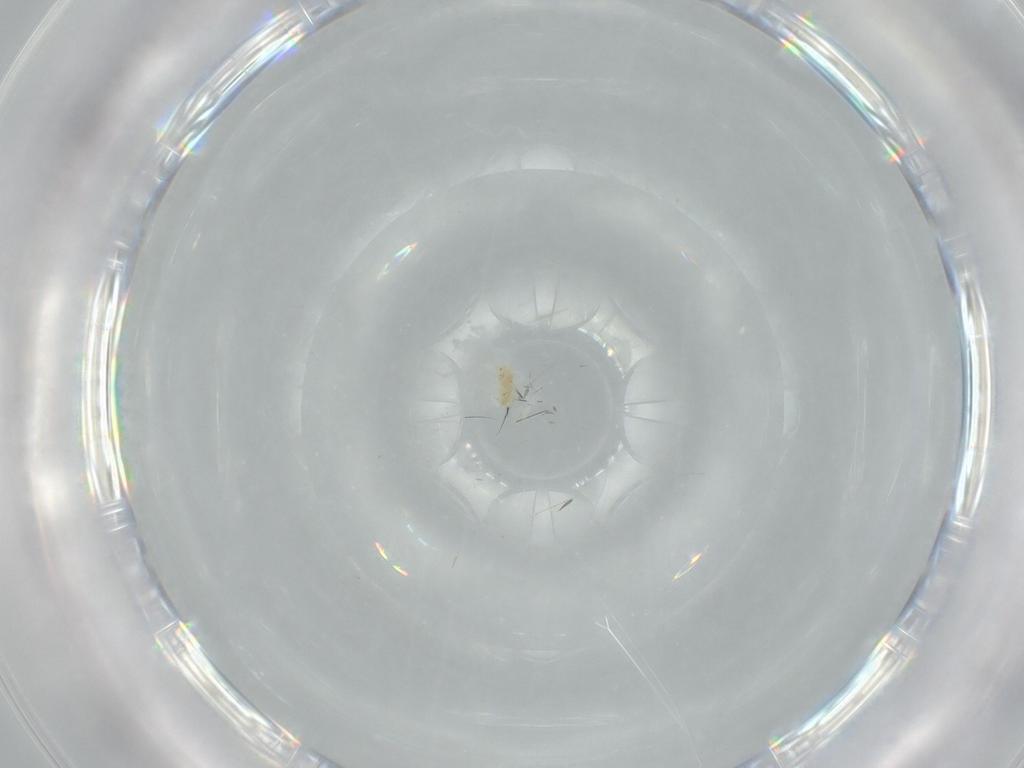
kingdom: Animalia
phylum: Arthropoda
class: Arachnida
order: Trombidiformes
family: Eupodidae
